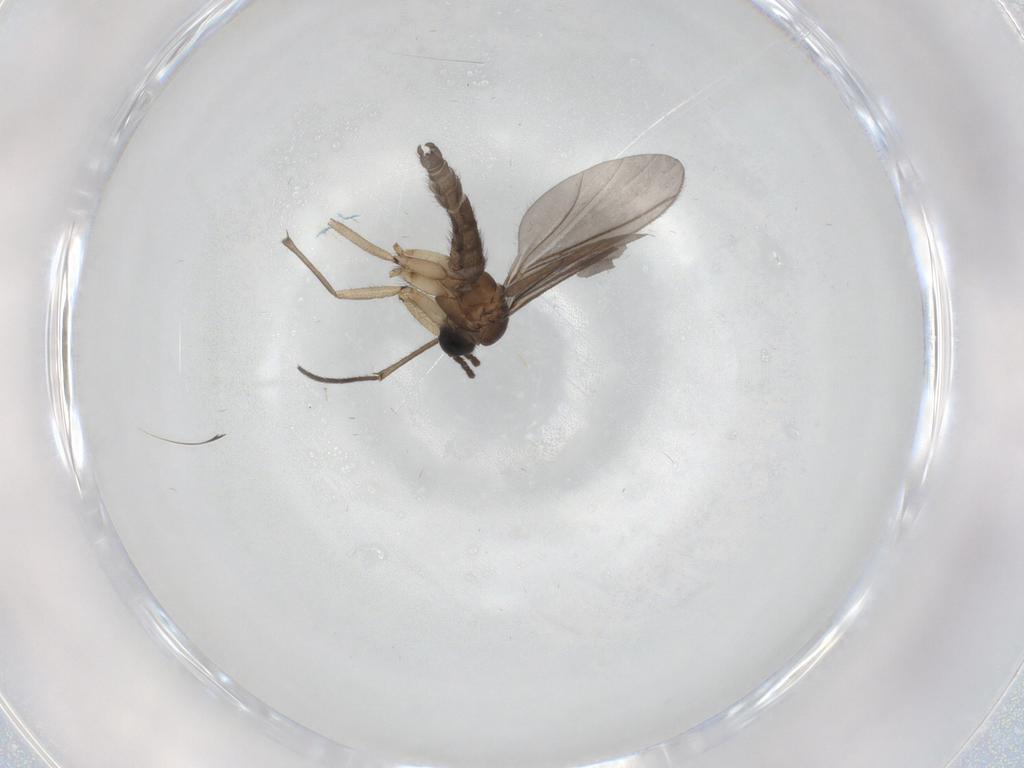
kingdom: Animalia
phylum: Arthropoda
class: Insecta
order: Diptera
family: Sciaridae
